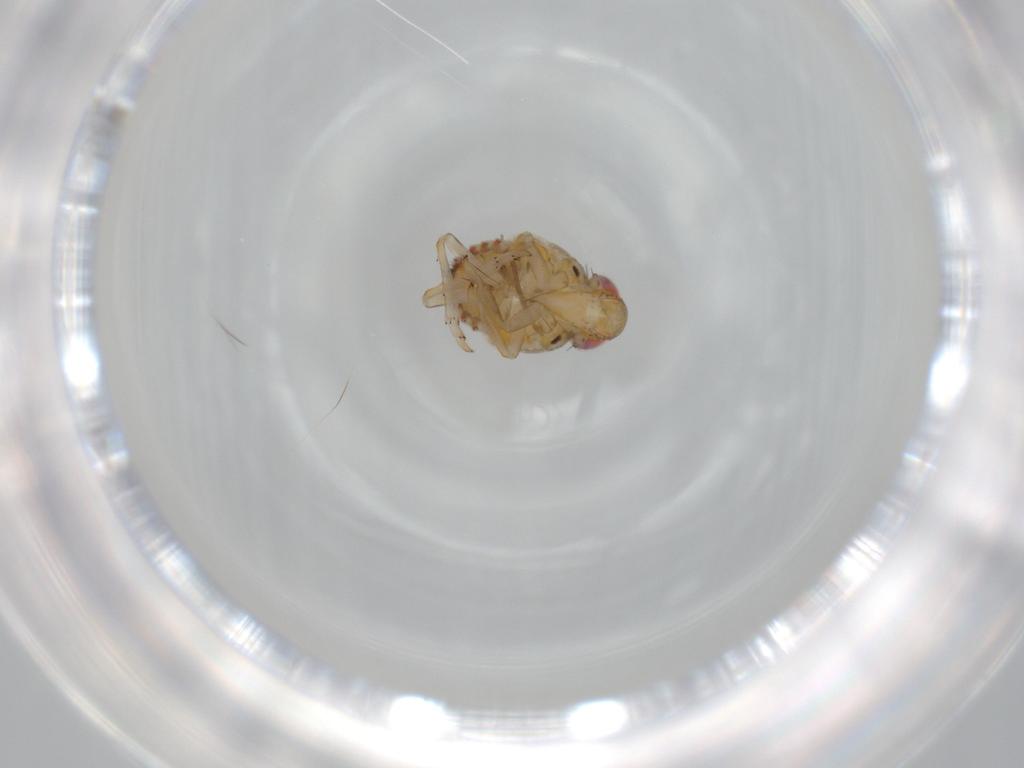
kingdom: Animalia
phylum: Arthropoda
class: Insecta
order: Hemiptera
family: Issidae
